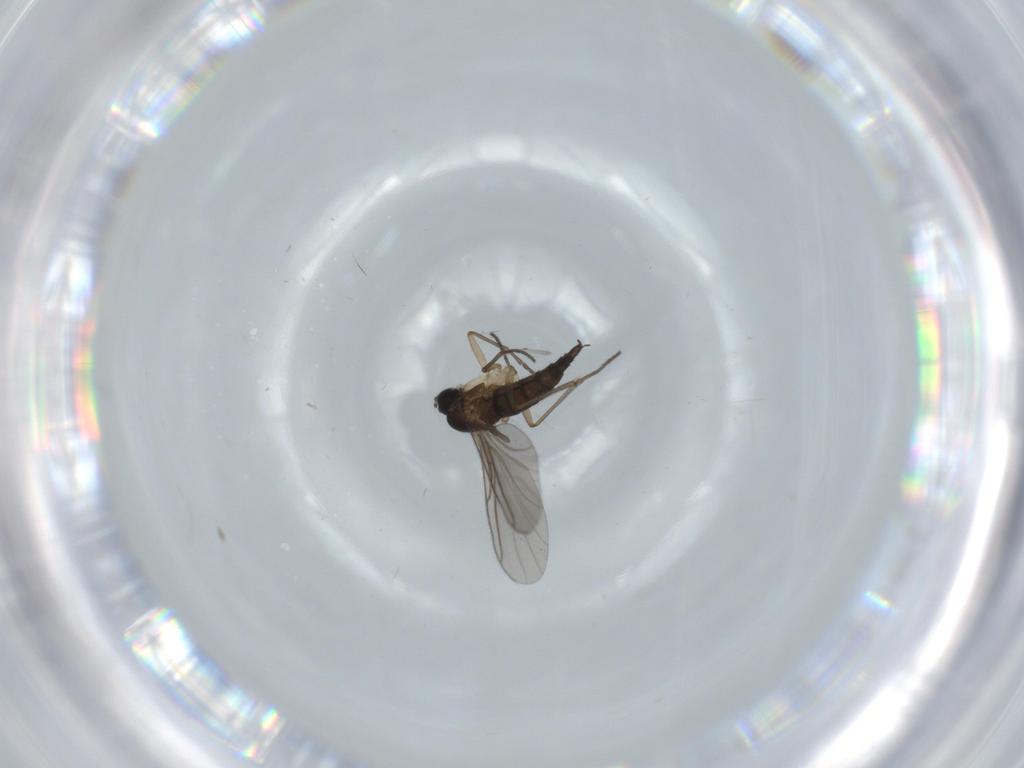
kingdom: Animalia
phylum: Arthropoda
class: Insecta
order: Diptera
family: Sciaridae
